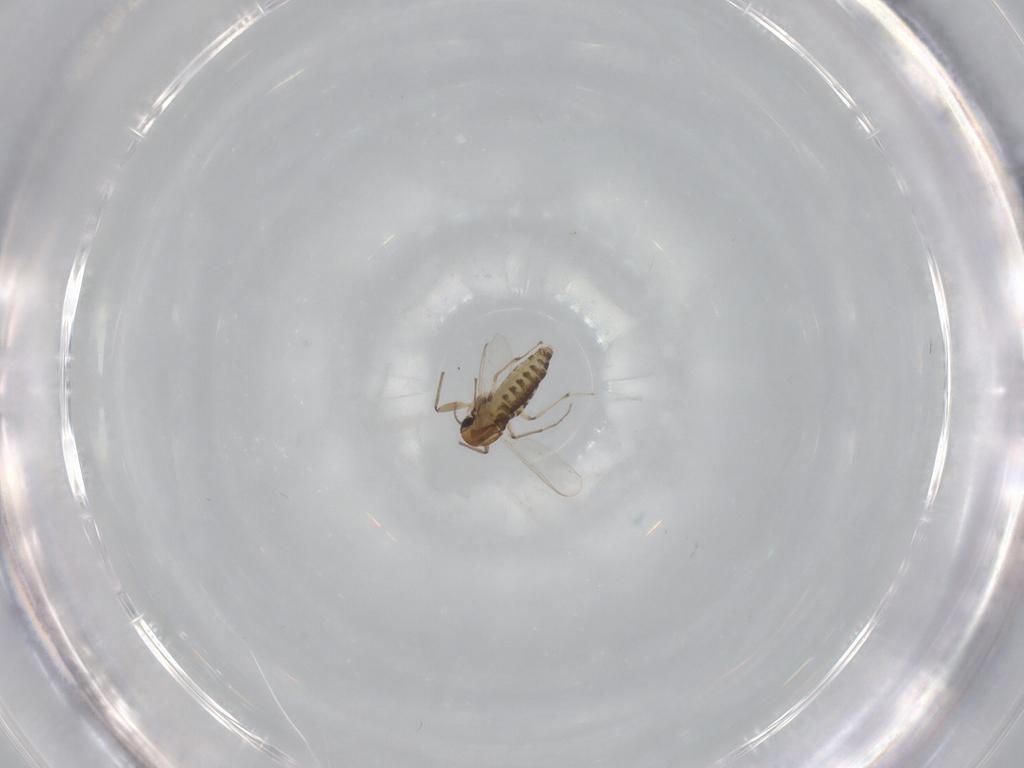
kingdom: Animalia
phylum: Arthropoda
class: Insecta
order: Diptera
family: Chironomidae
